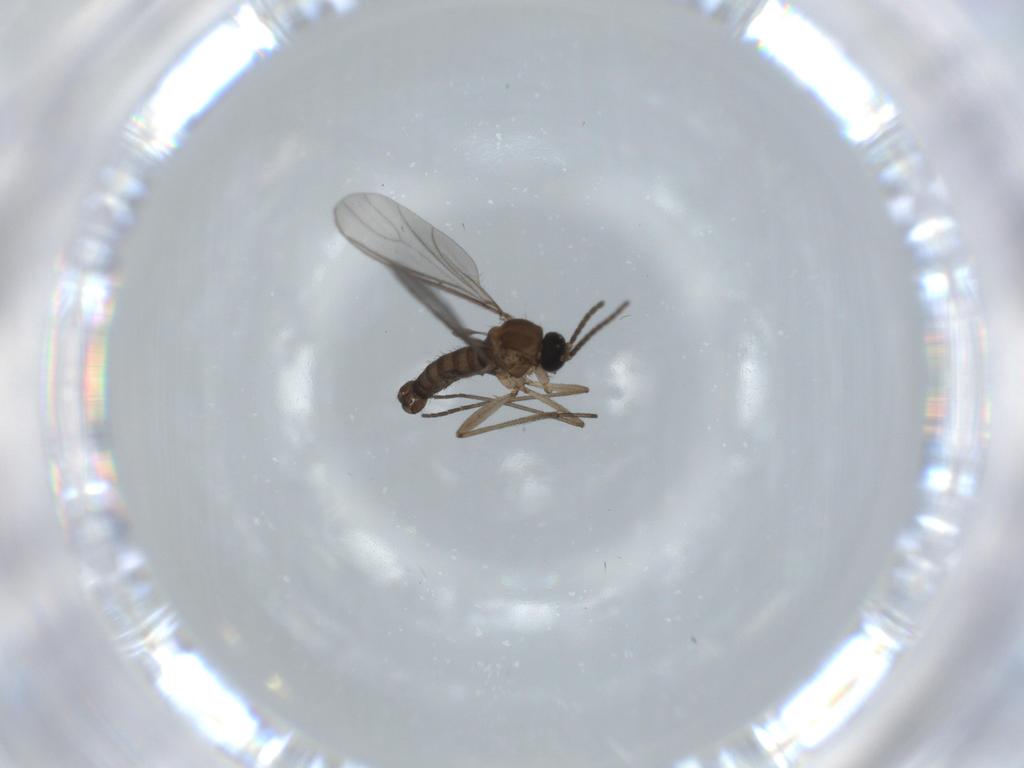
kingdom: Animalia
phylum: Arthropoda
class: Insecta
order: Diptera
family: Sciaridae
